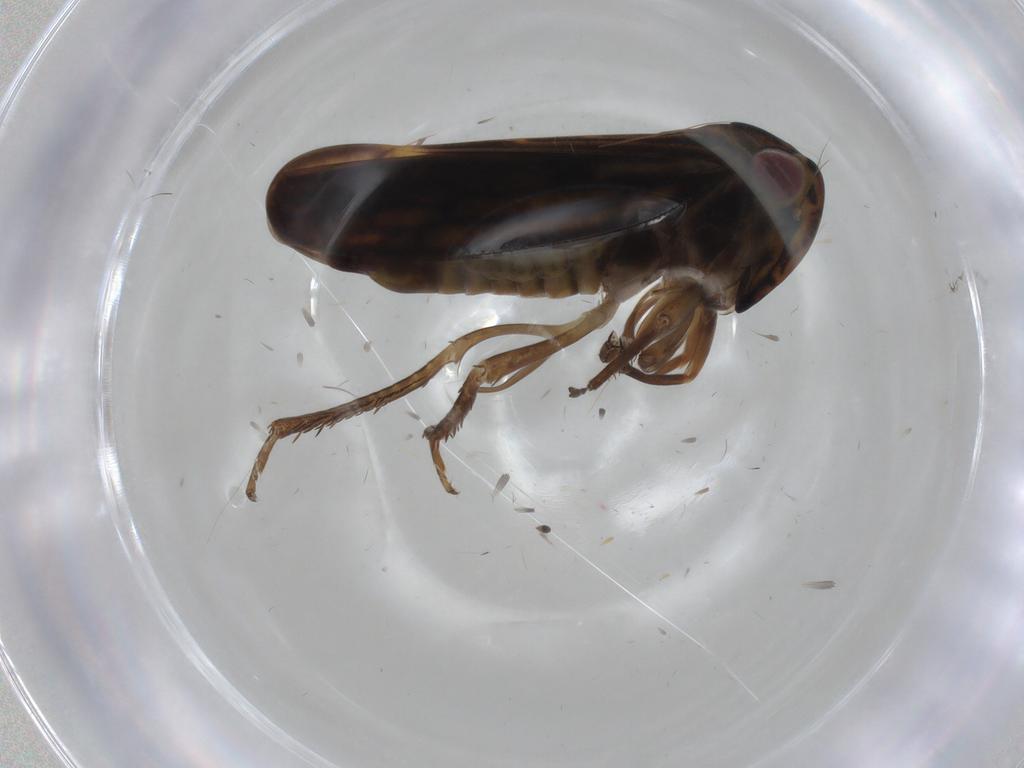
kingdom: Animalia
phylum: Arthropoda
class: Insecta
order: Hemiptera
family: Cicadellidae
